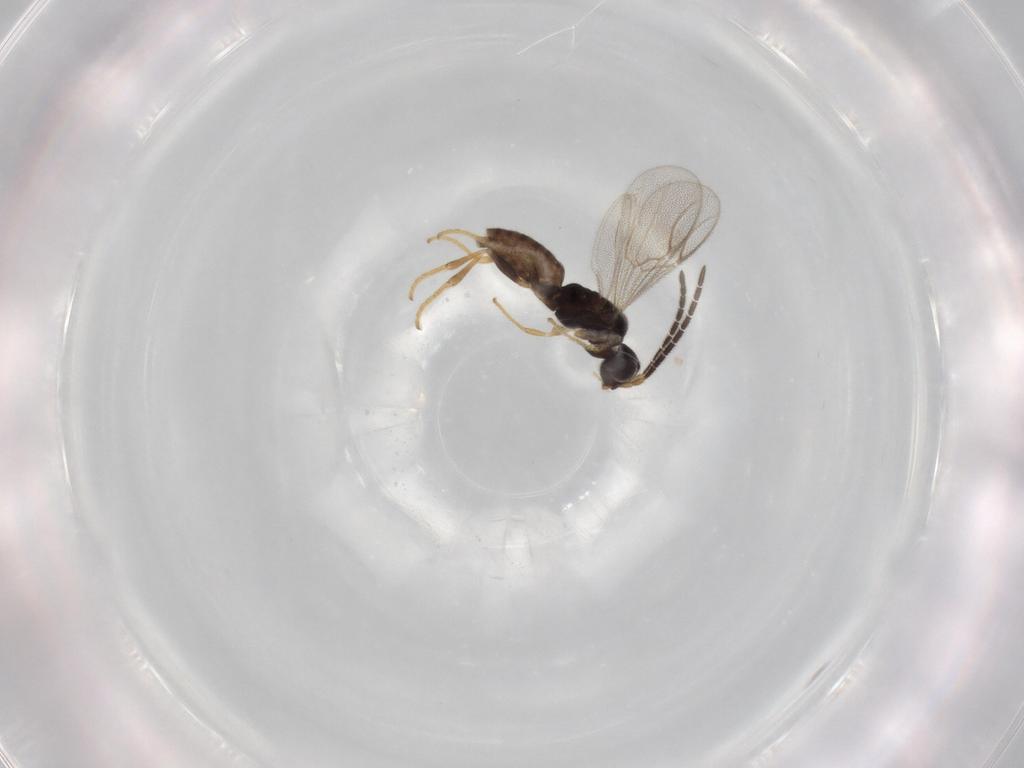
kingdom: Animalia
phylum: Arthropoda
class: Insecta
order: Hymenoptera
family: Dryinidae
